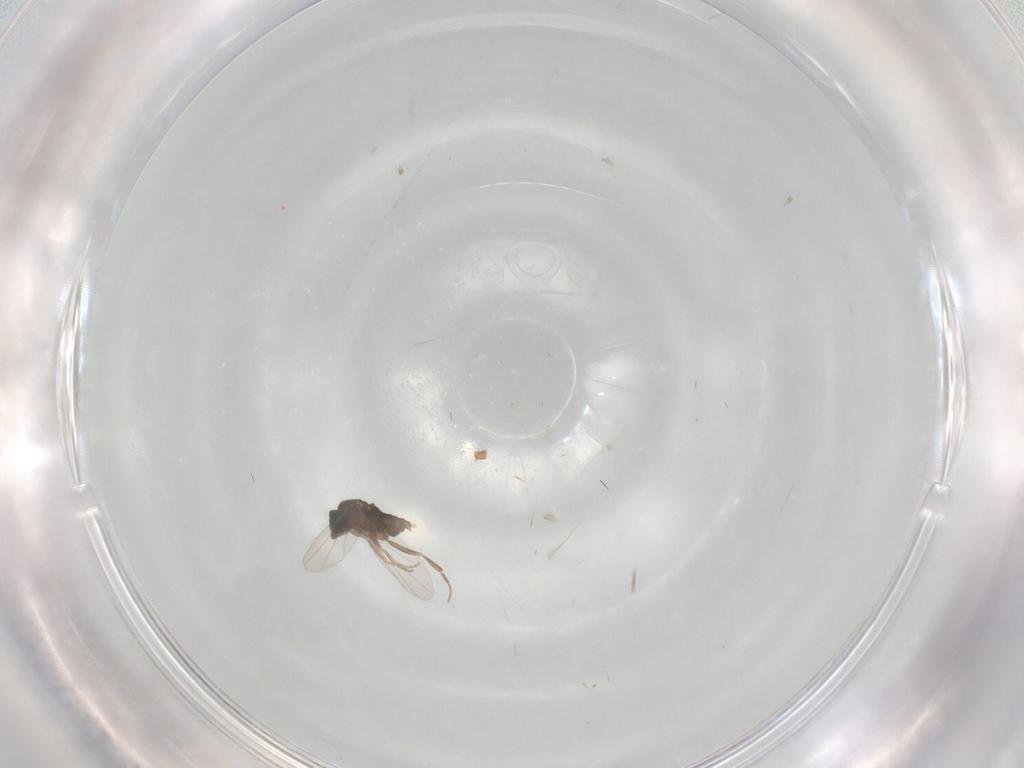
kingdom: Animalia
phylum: Arthropoda
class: Insecta
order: Diptera
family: Phoridae
